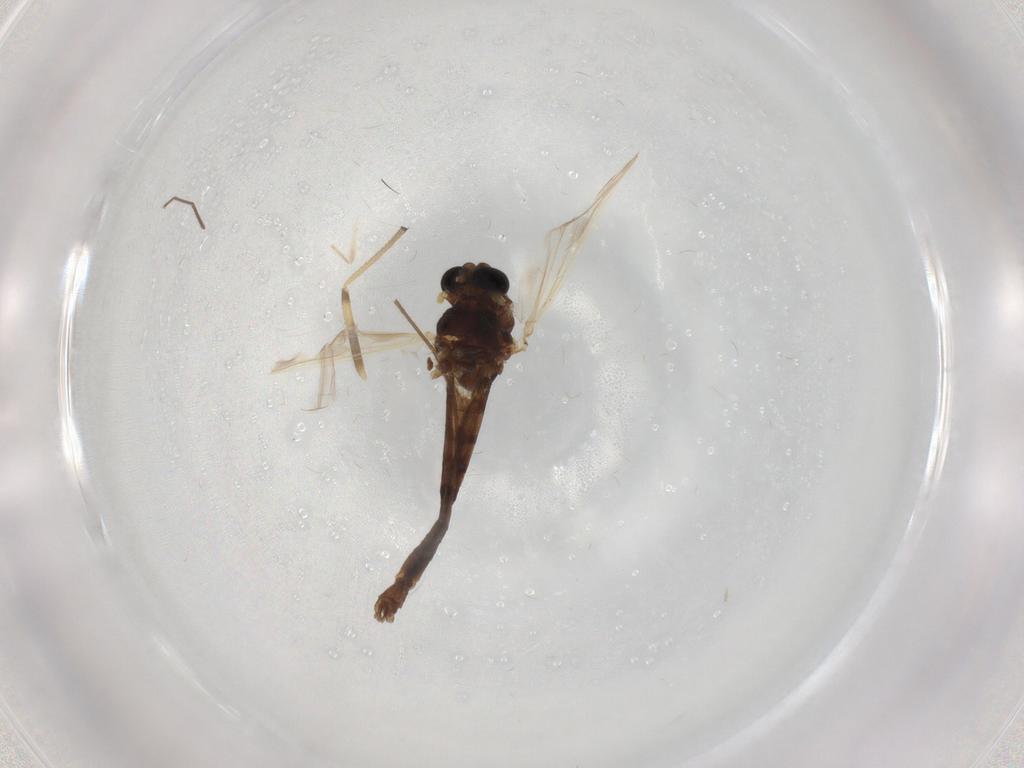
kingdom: Animalia
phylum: Arthropoda
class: Insecta
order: Diptera
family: Chironomidae
